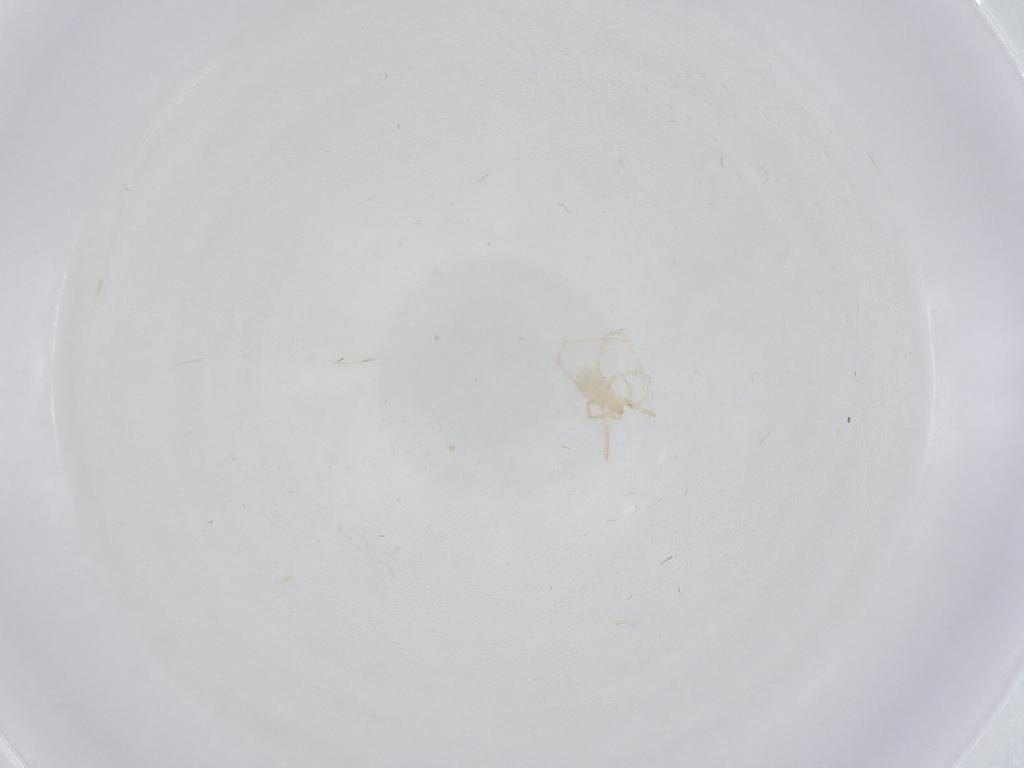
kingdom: Animalia
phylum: Arthropoda
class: Arachnida
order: Trombidiformes
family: Erythraeidae
